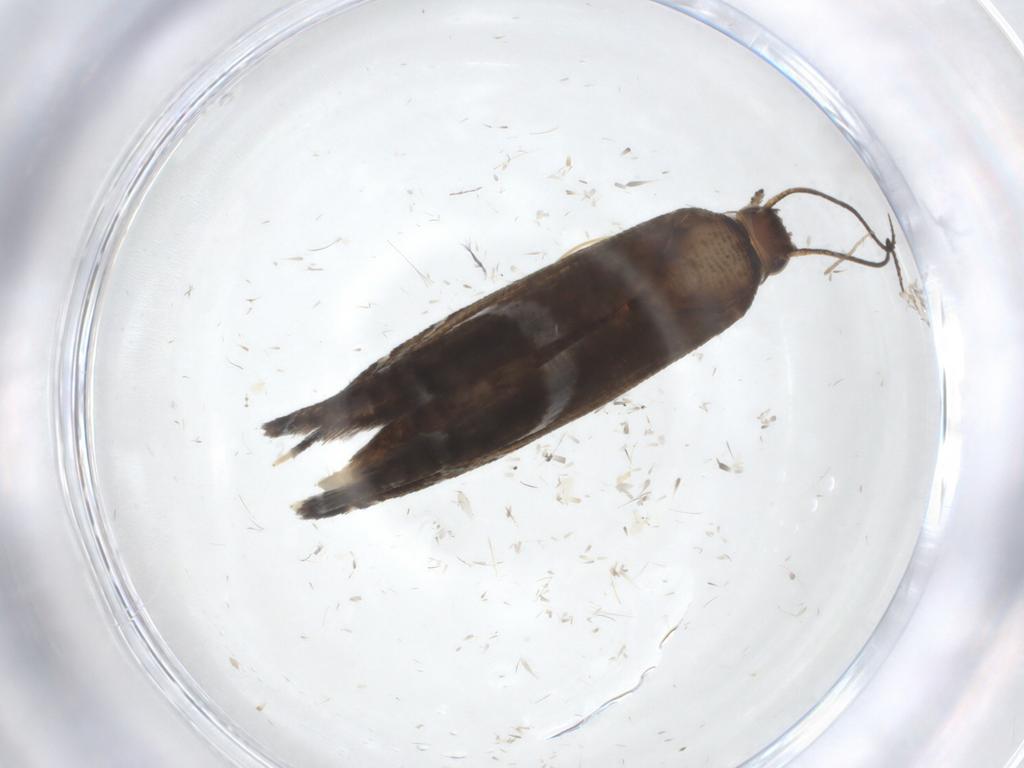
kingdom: Animalia
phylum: Arthropoda
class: Insecta
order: Lepidoptera
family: Glyphipterigidae
